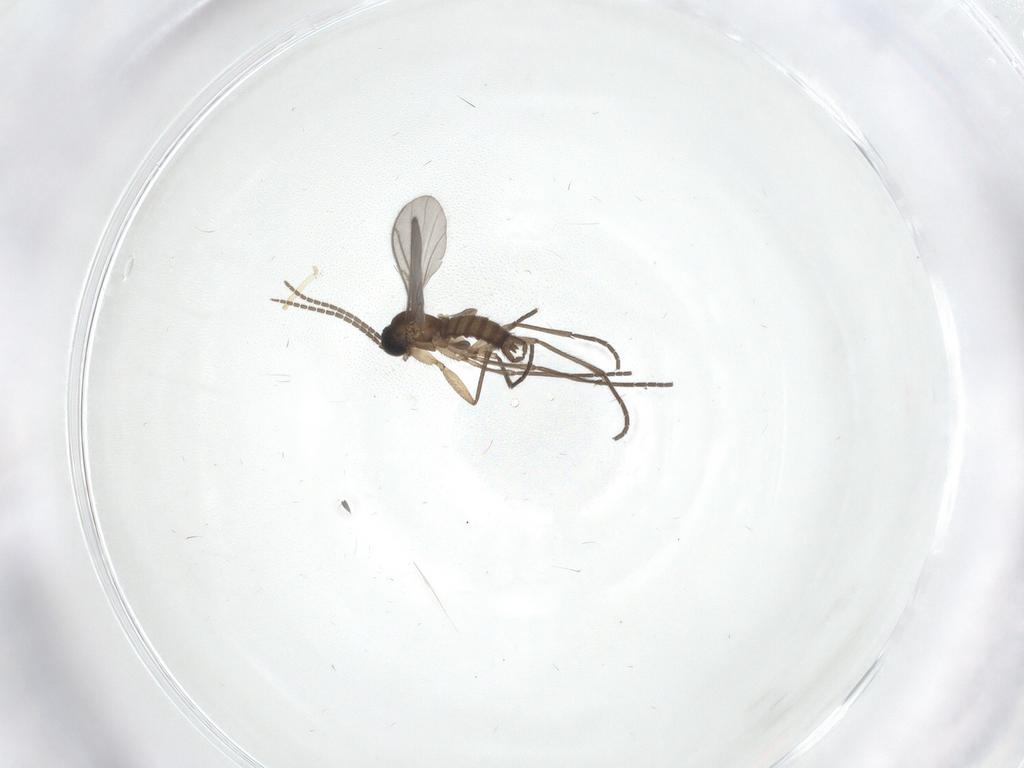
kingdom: Animalia
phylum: Arthropoda
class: Insecta
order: Diptera
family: Sciaridae
